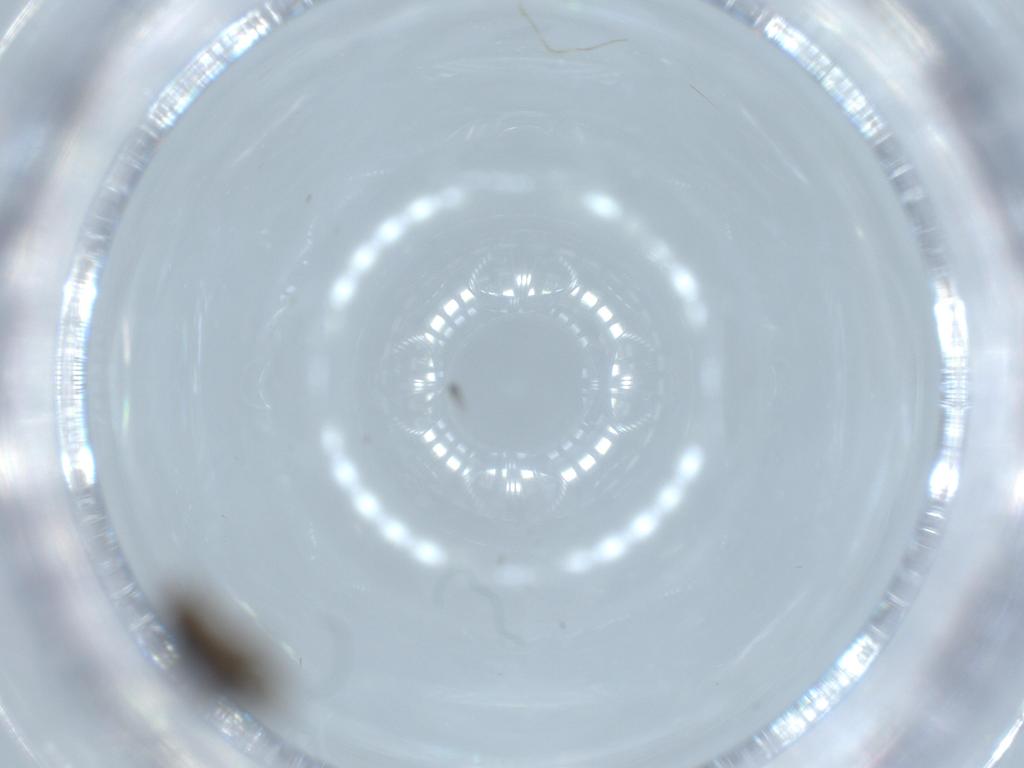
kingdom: Animalia
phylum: Arthropoda
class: Insecta
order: Diptera
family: Sphaeroceridae
